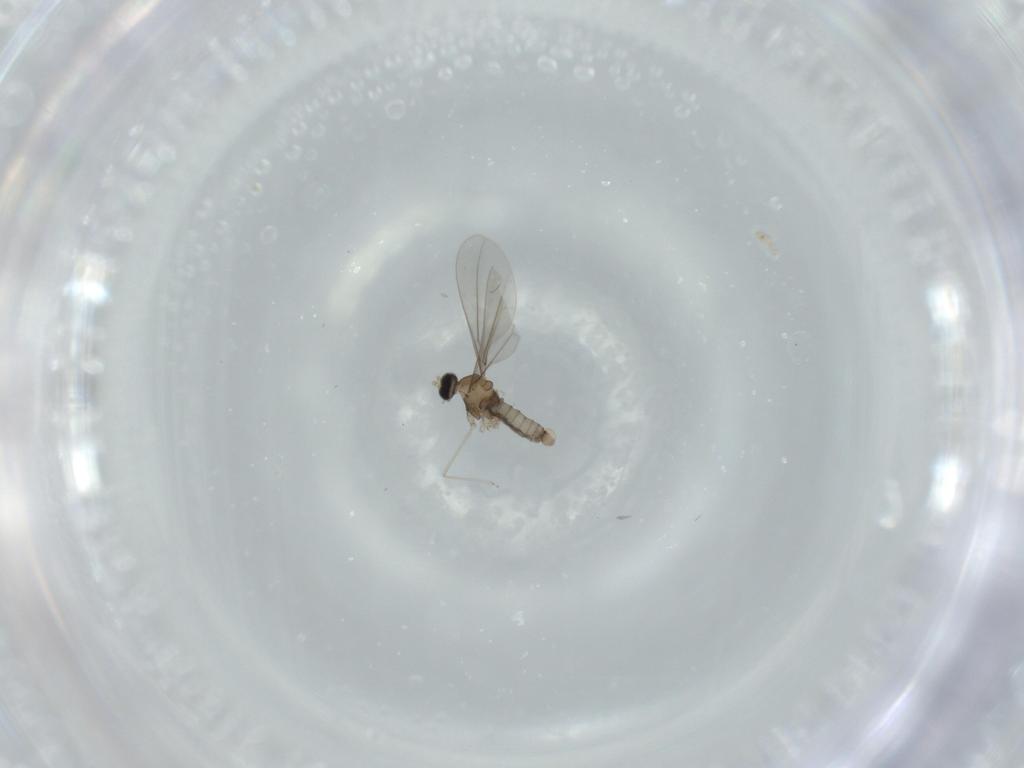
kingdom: Animalia
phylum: Arthropoda
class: Insecta
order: Diptera
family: Cecidomyiidae
